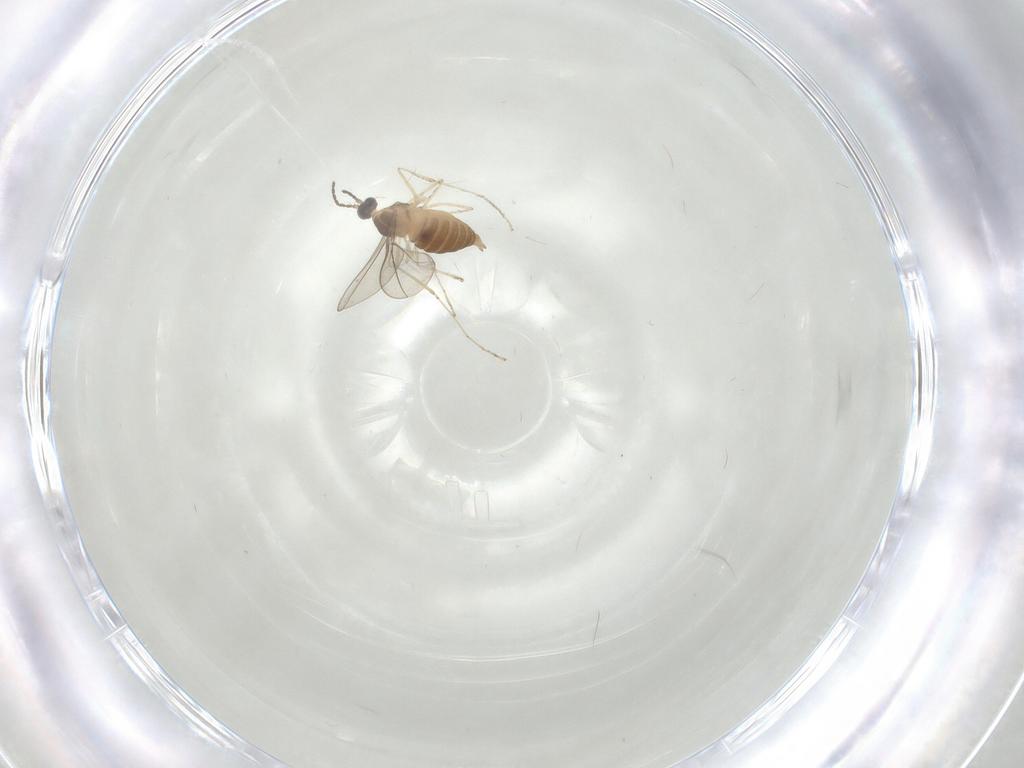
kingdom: Animalia
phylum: Arthropoda
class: Insecta
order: Diptera
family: Cecidomyiidae
